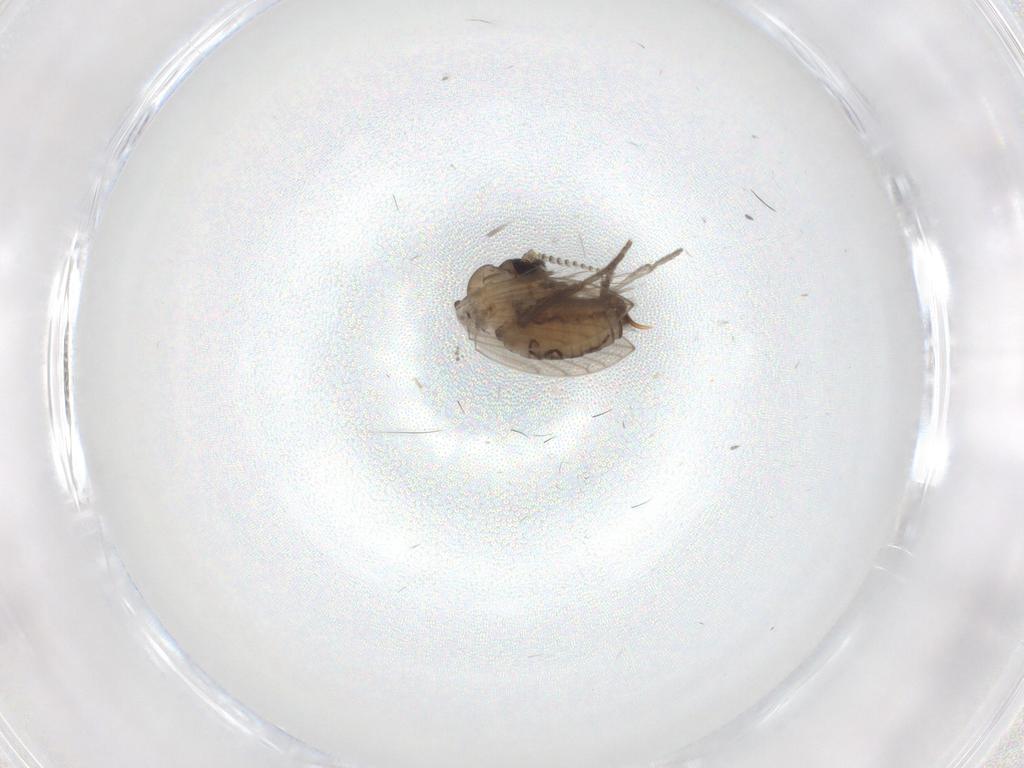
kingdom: Animalia
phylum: Arthropoda
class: Insecta
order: Diptera
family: Psychodidae
